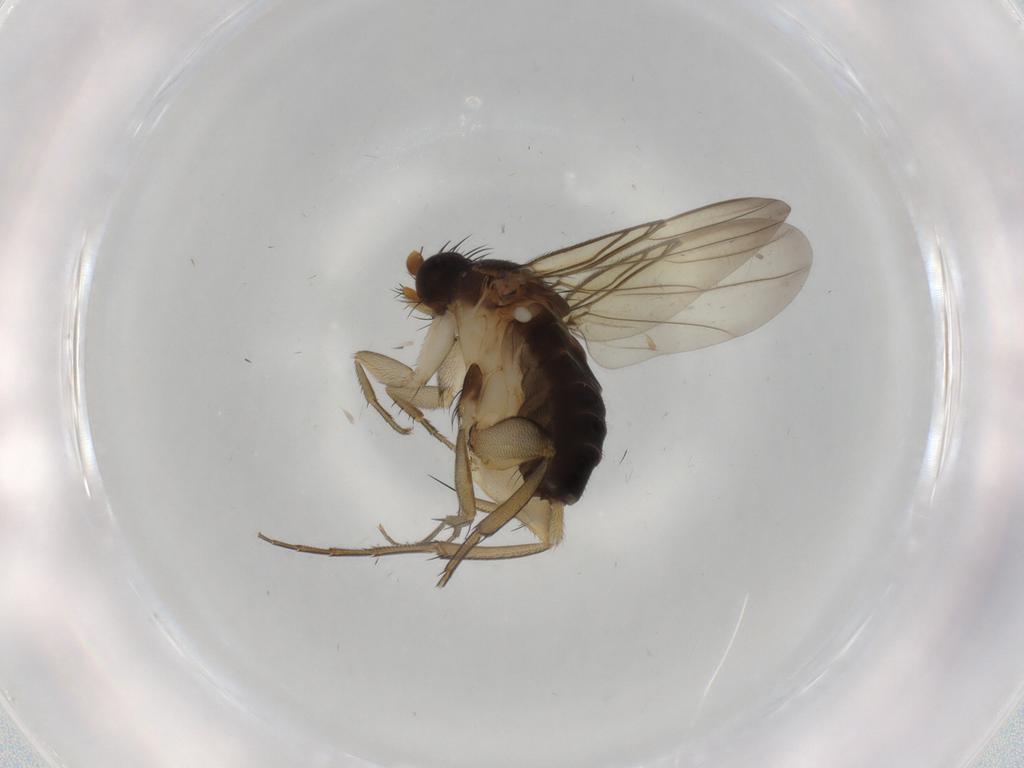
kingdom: Animalia
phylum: Arthropoda
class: Insecta
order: Diptera
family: Phoridae
